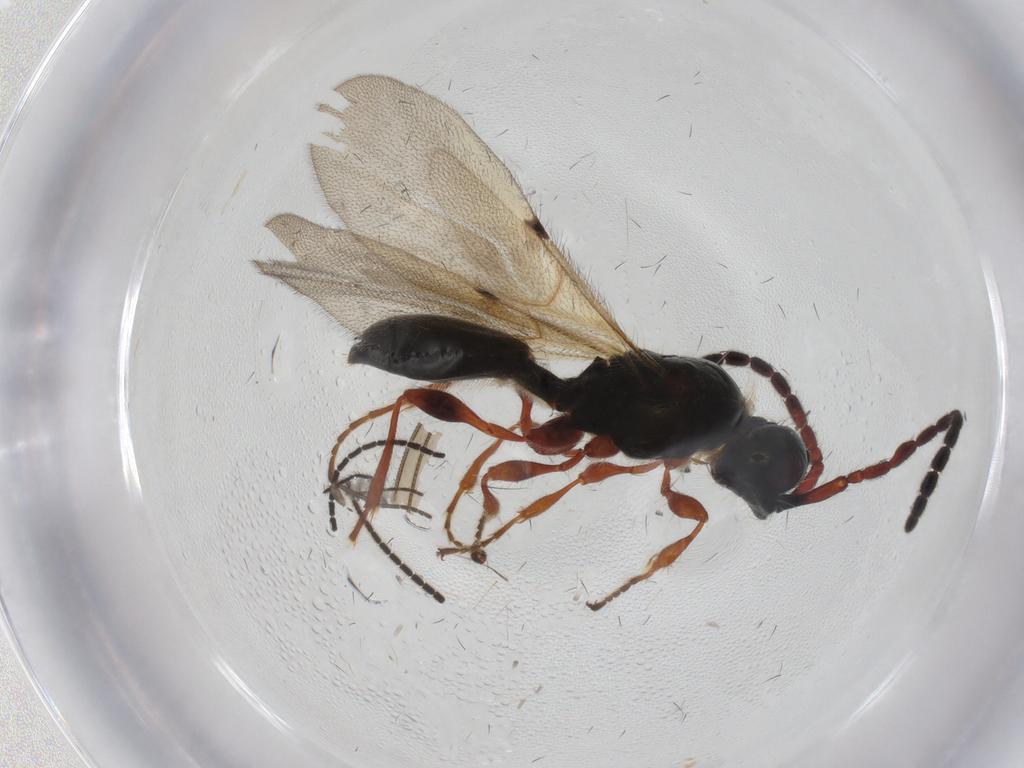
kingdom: Animalia
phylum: Arthropoda
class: Insecta
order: Hymenoptera
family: Diapriidae
